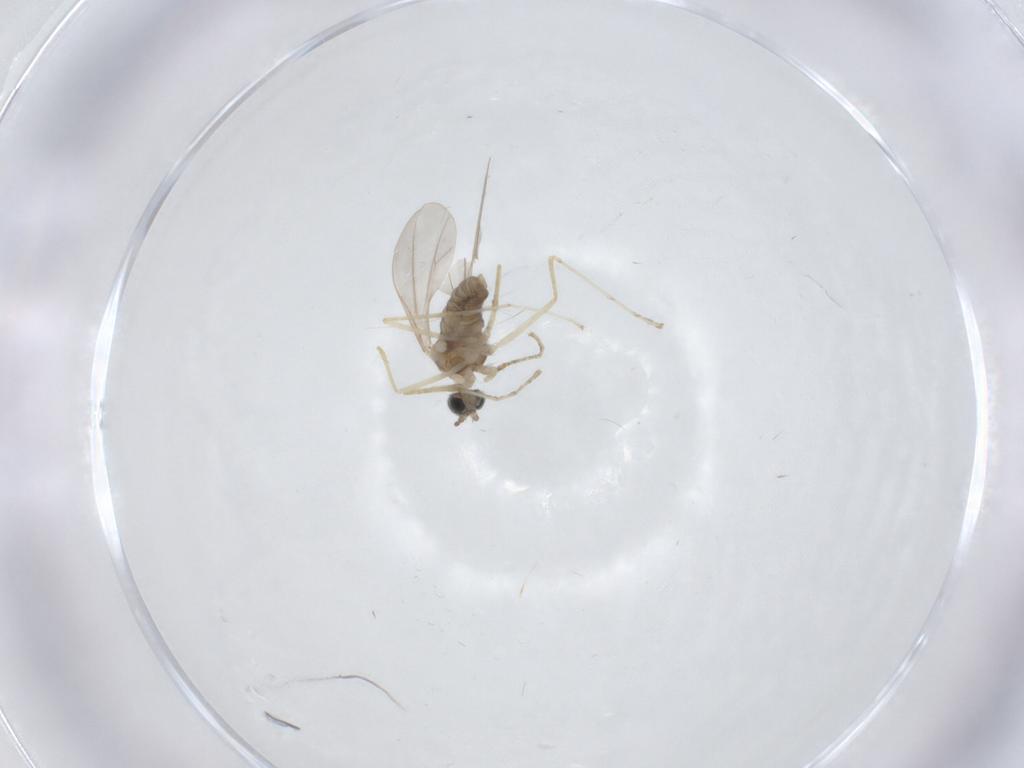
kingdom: Animalia
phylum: Arthropoda
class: Insecta
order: Diptera
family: Cecidomyiidae
